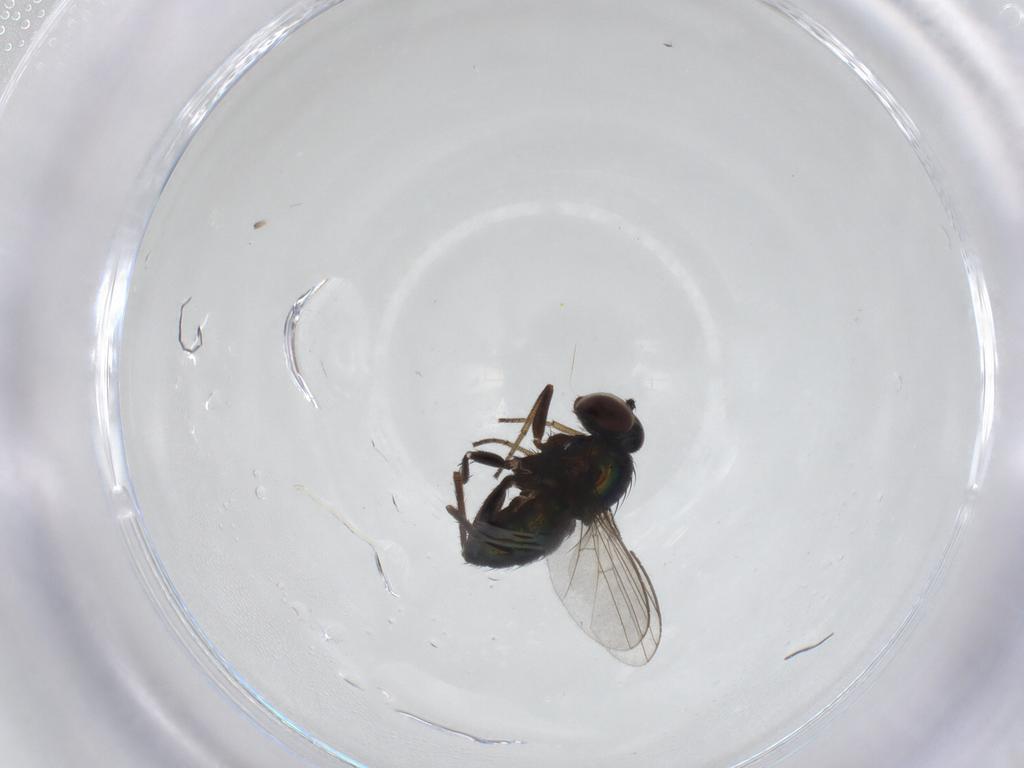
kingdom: Animalia
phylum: Arthropoda
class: Insecta
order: Diptera
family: Dolichopodidae
